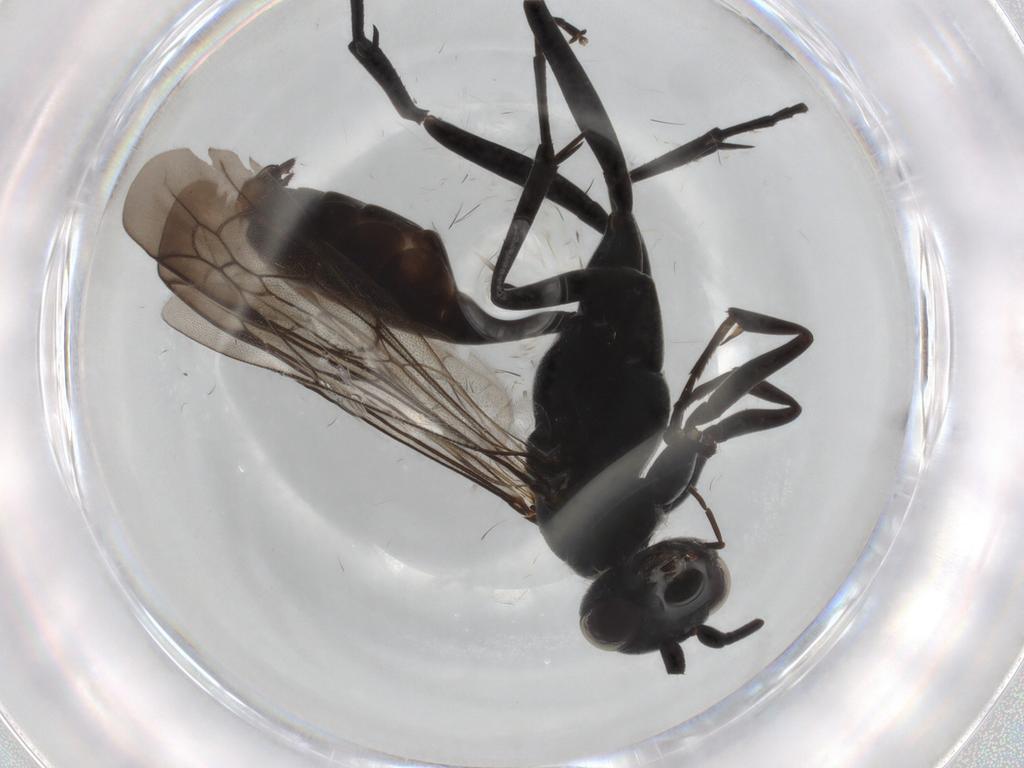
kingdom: Animalia
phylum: Arthropoda
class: Insecta
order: Hymenoptera
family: Pompilidae
